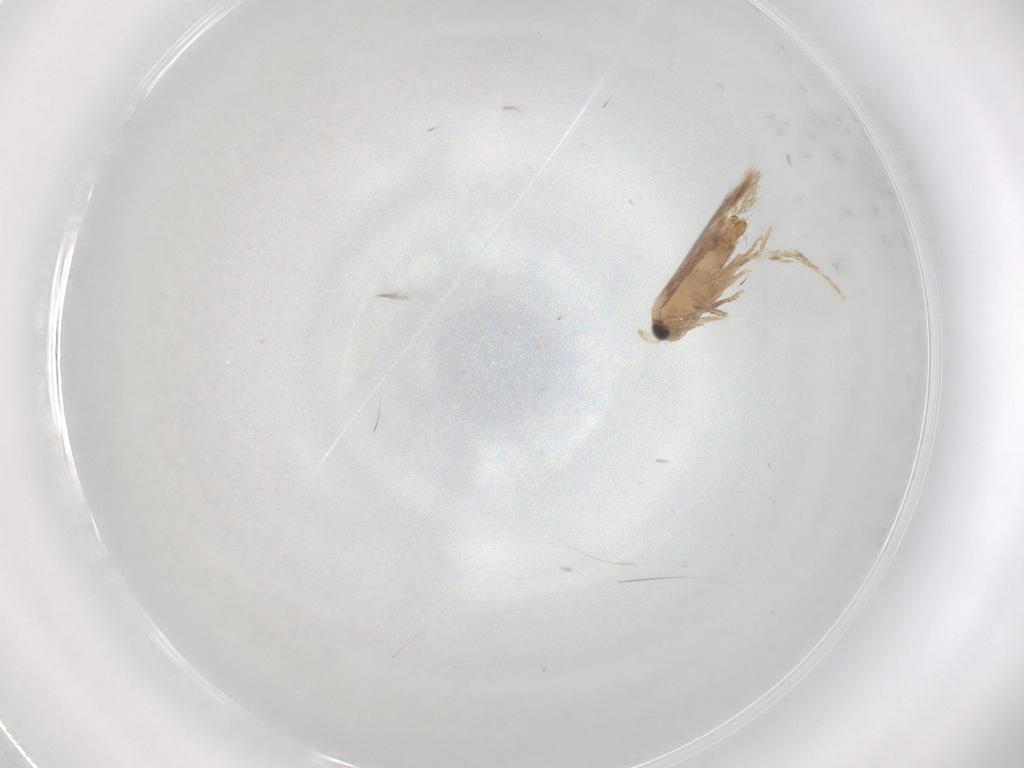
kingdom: Animalia
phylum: Arthropoda
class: Insecta
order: Lepidoptera
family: Nepticulidae
